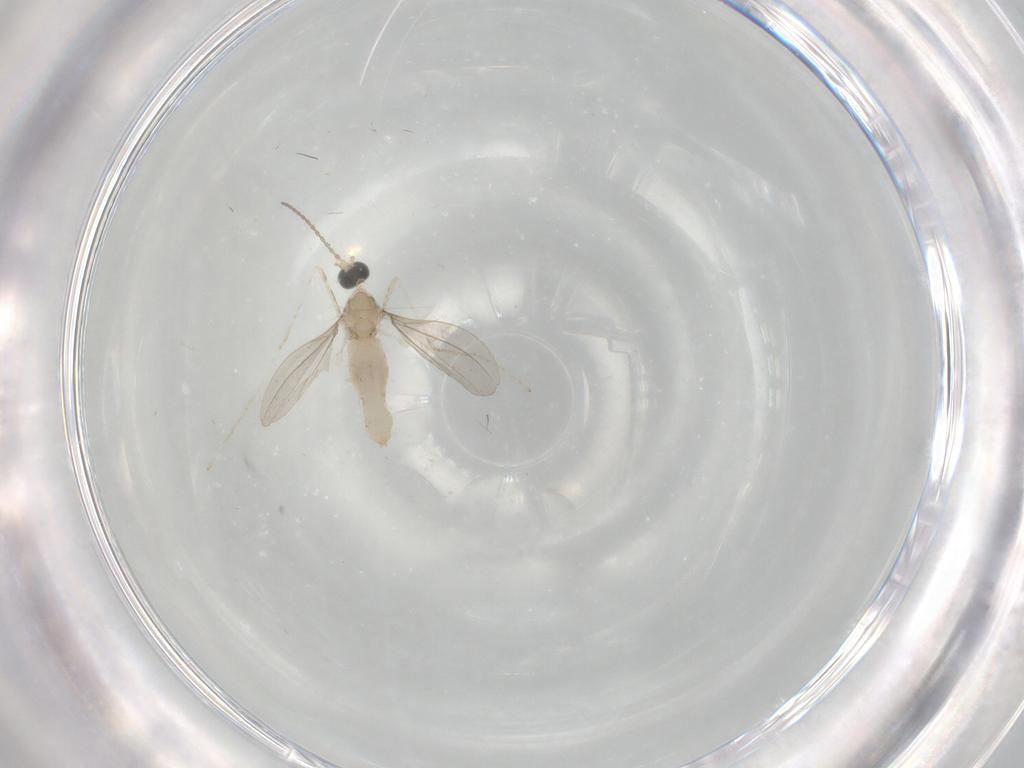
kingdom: Animalia
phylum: Arthropoda
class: Insecta
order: Diptera
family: Cecidomyiidae
